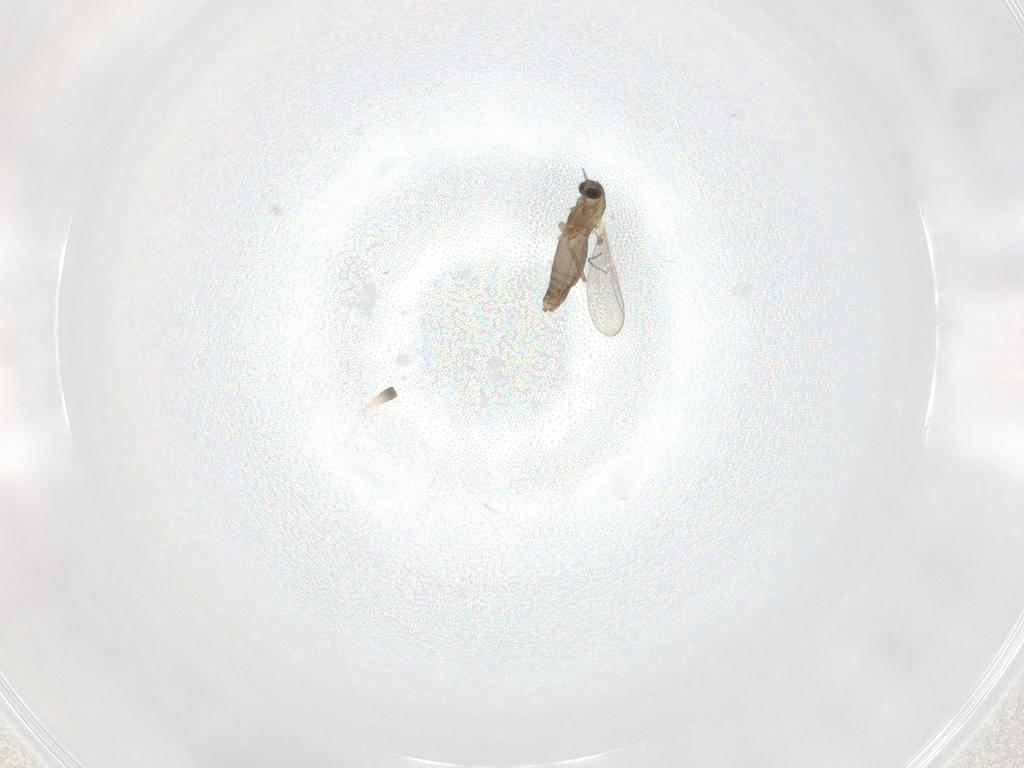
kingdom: Animalia
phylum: Arthropoda
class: Insecta
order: Diptera
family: Chironomidae
